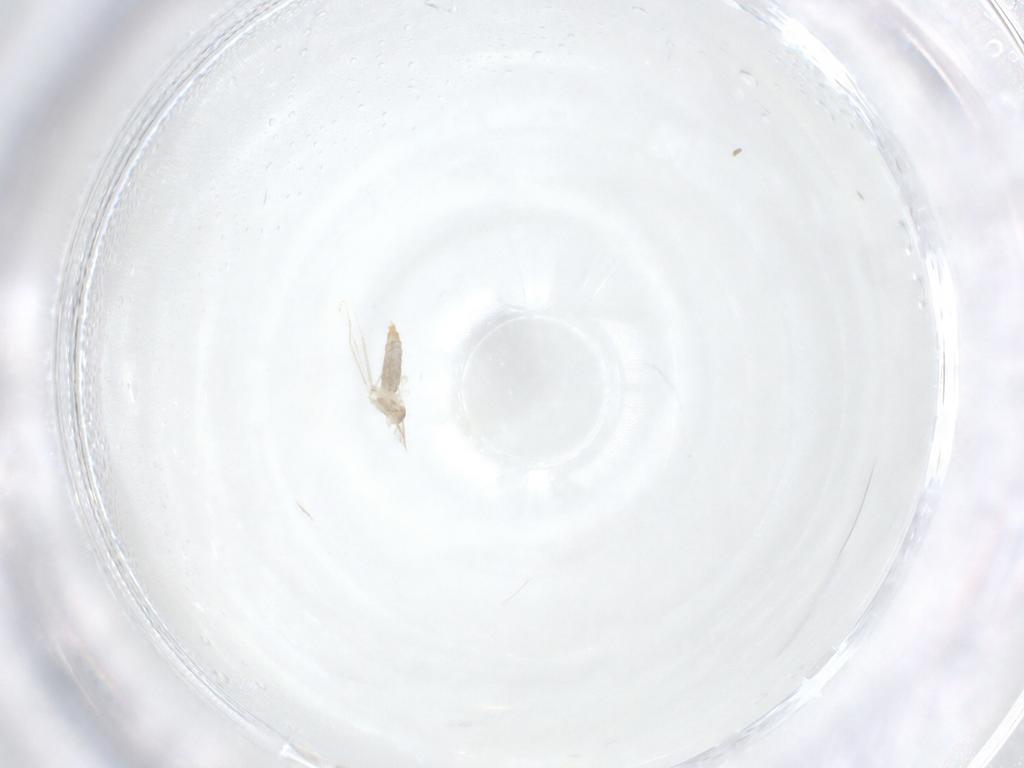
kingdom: Animalia
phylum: Arthropoda
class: Insecta
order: Diptera
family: Cecidomyiidae
